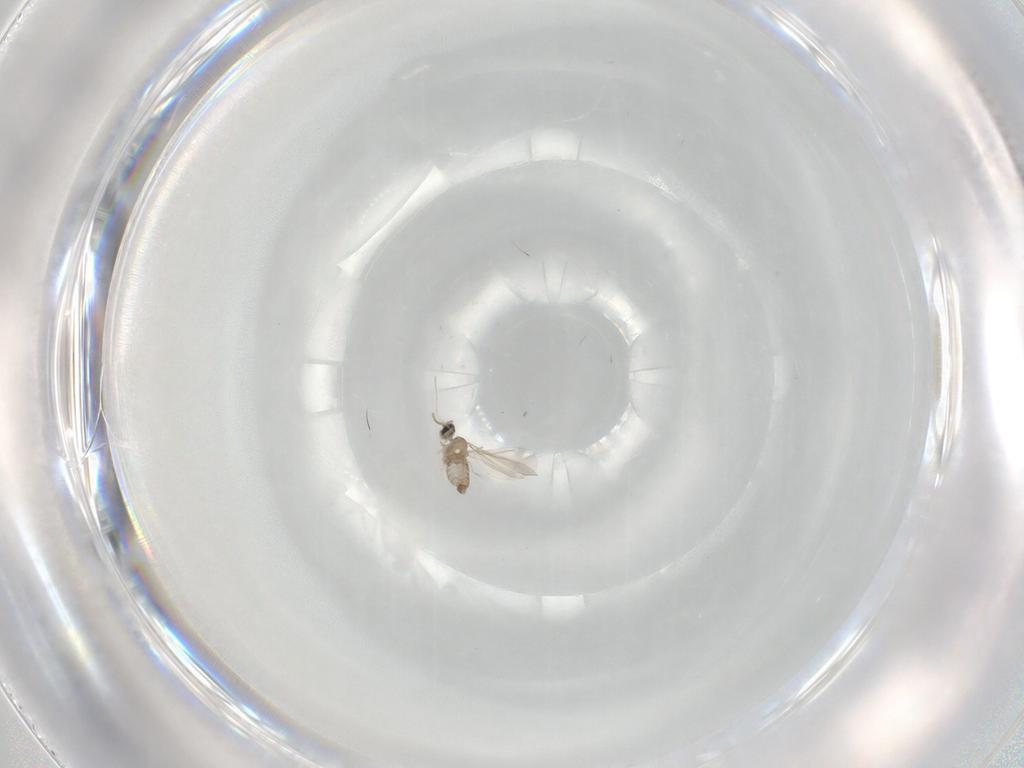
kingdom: Animalia
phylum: Arthropoda
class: Insecta
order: Diptera
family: Cecidomyiidae
